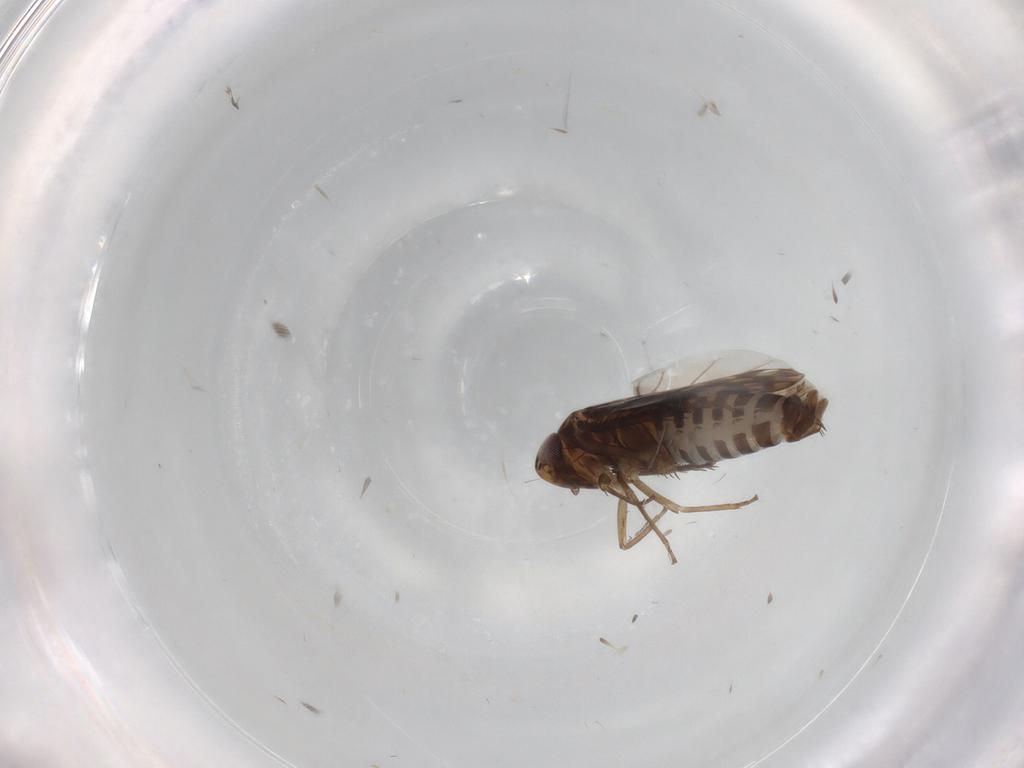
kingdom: Animalia
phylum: Arthropoda
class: Insecta
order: Hemiptera
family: Cicadellidae
